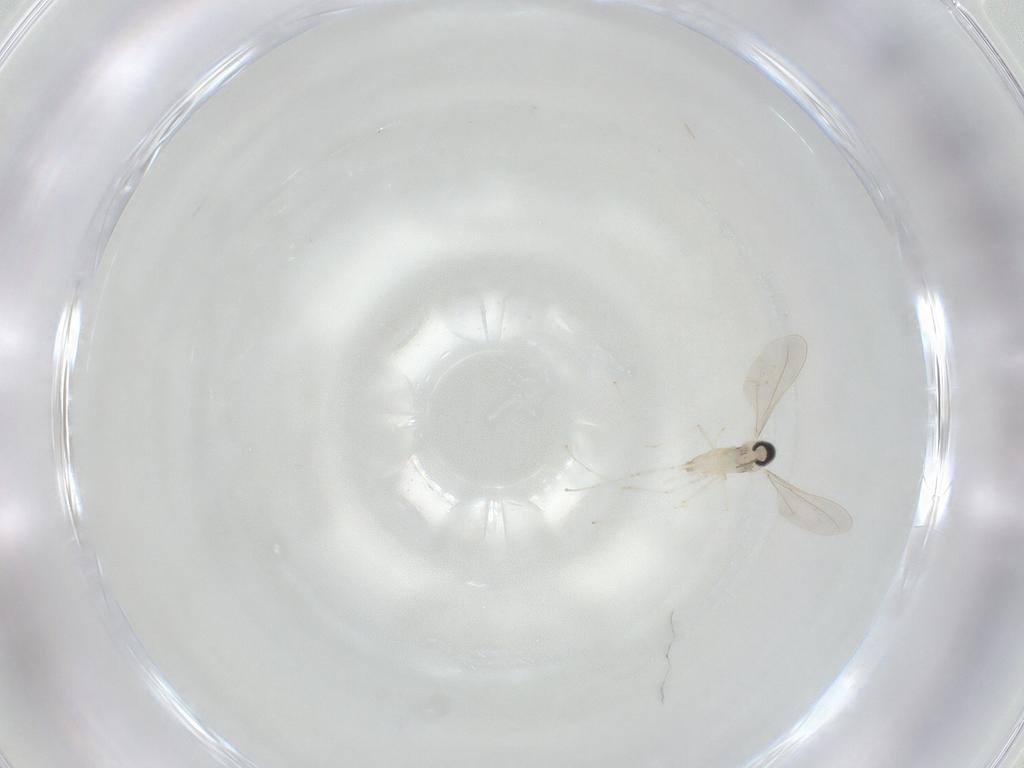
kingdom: Animalia
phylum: Arthropoda
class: Insecta
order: Diptera
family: Cecidomyiidae
